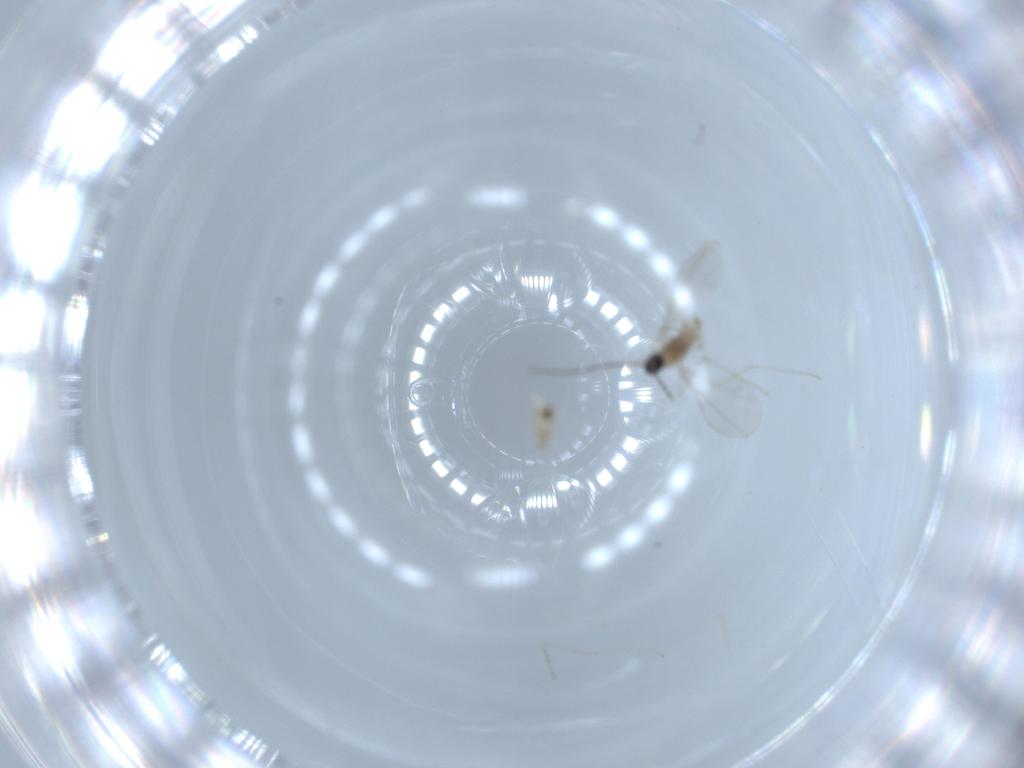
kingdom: Animalia
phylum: Arthropoda
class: Insecta
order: Diptera
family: Cecidomyiidae
